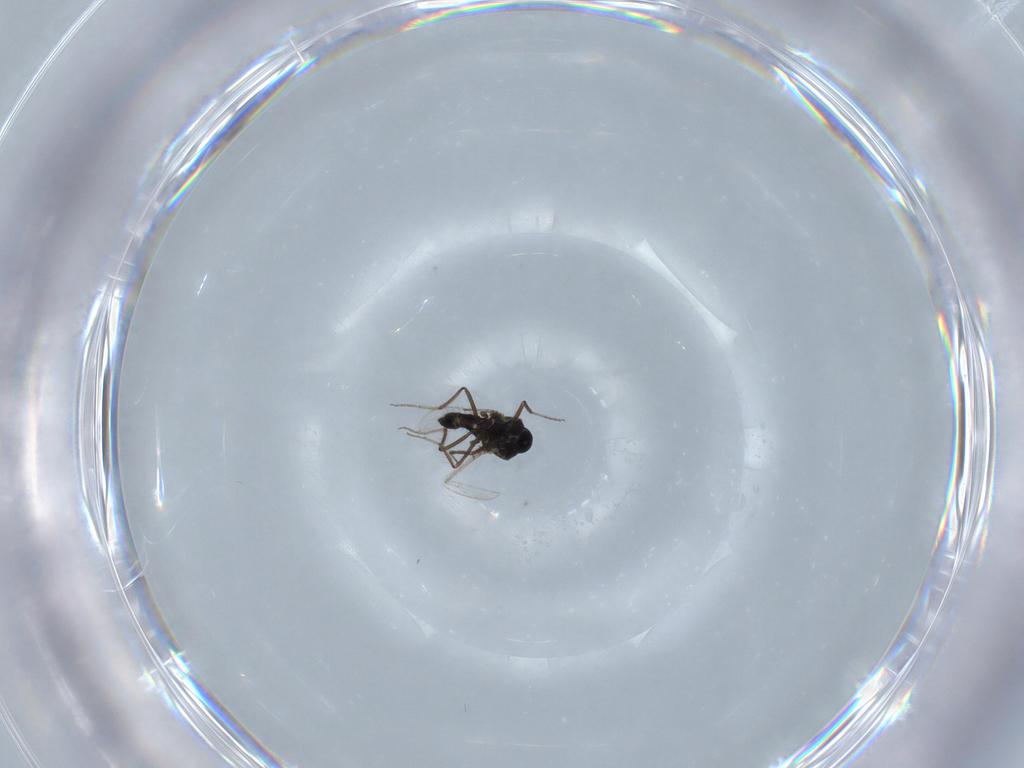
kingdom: Animalia
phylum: Arthropoda
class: Insecta
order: Diptera
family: Ceratopogonidae
